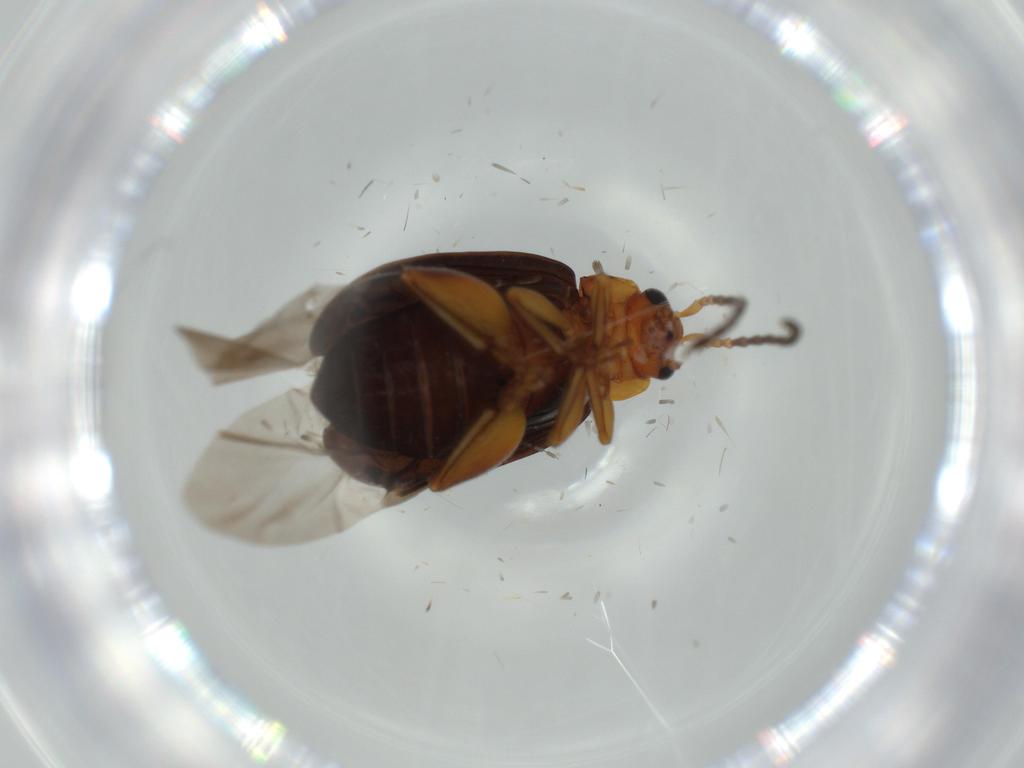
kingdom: Animalia
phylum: Arthropoda
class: Insecta
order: Coleoptera
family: Chrysomelidae
